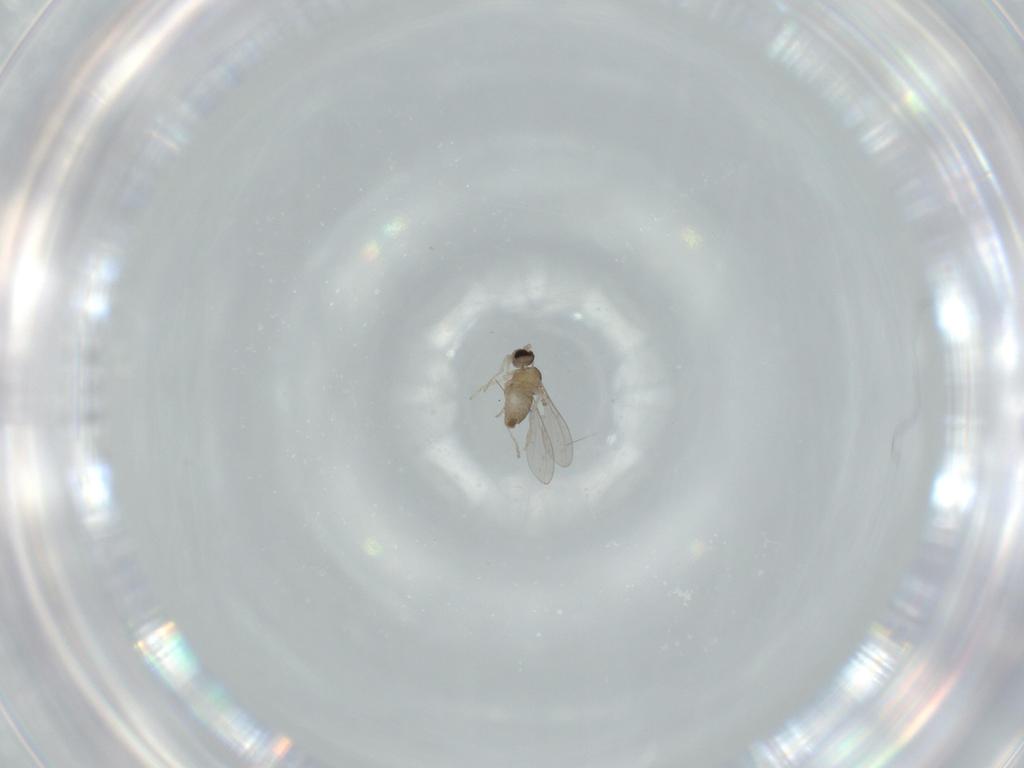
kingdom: Animalia
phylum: Arthropoda
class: Insecta
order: Diptera
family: Cecidomyiidae
